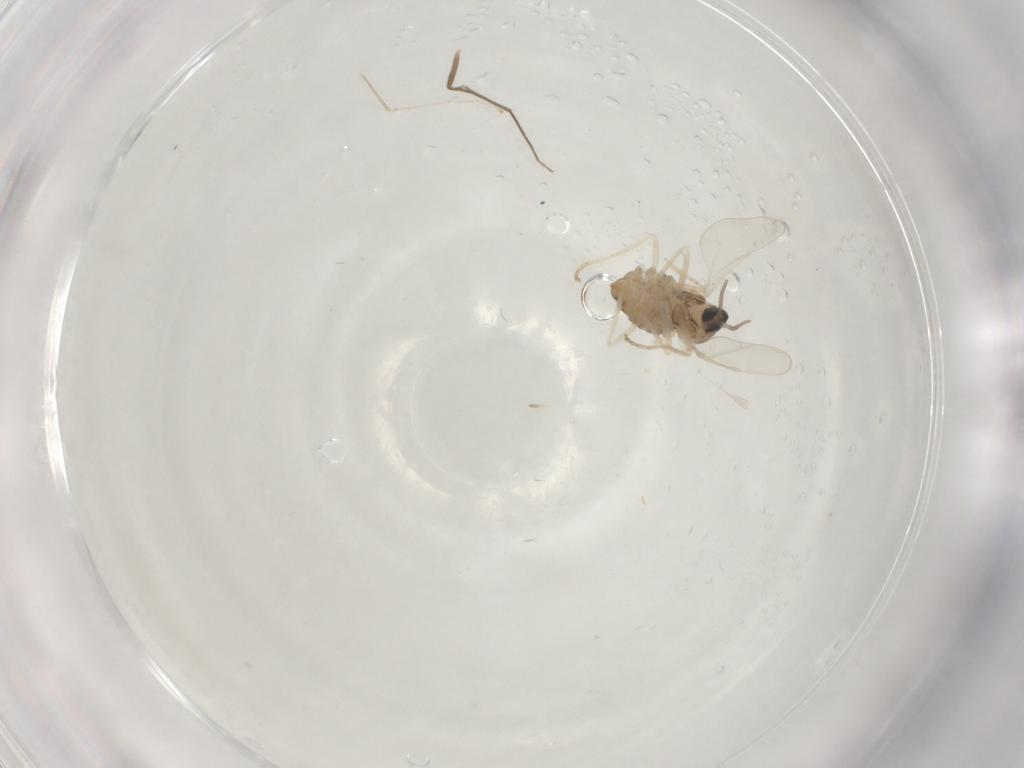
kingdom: Animalia
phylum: Arthropoda
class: Insecta
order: Diptera
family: Cecidomyiidae
